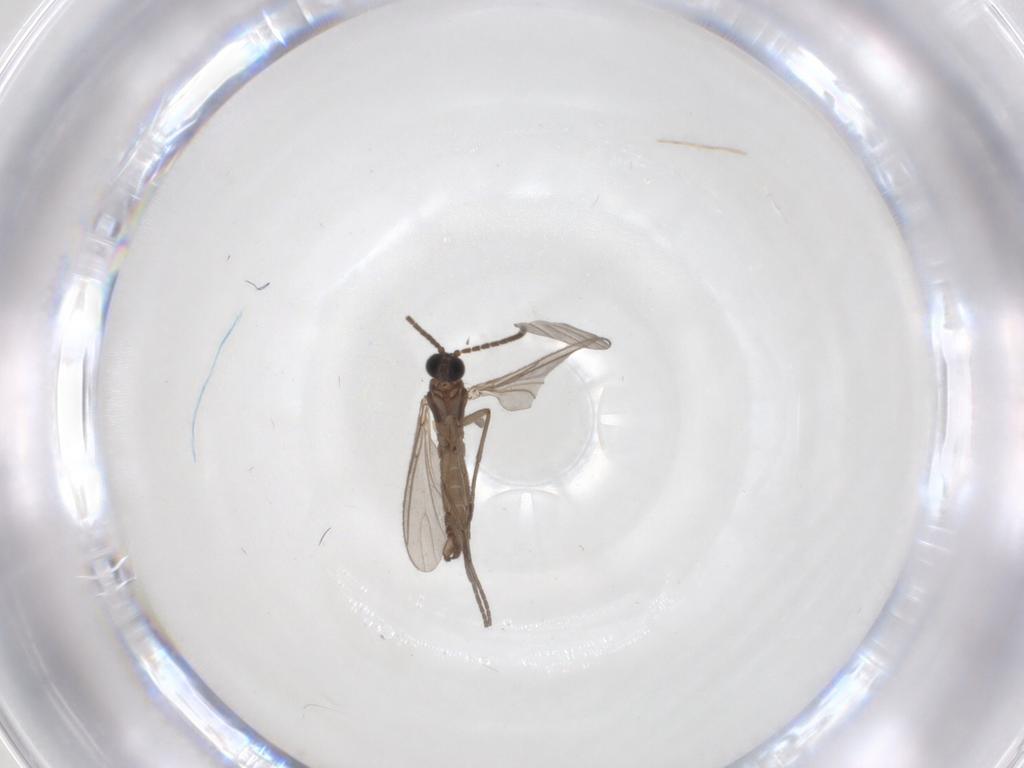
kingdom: Animalia
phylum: Arthropoda
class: Insecta
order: Diptera
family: Sciaridae
